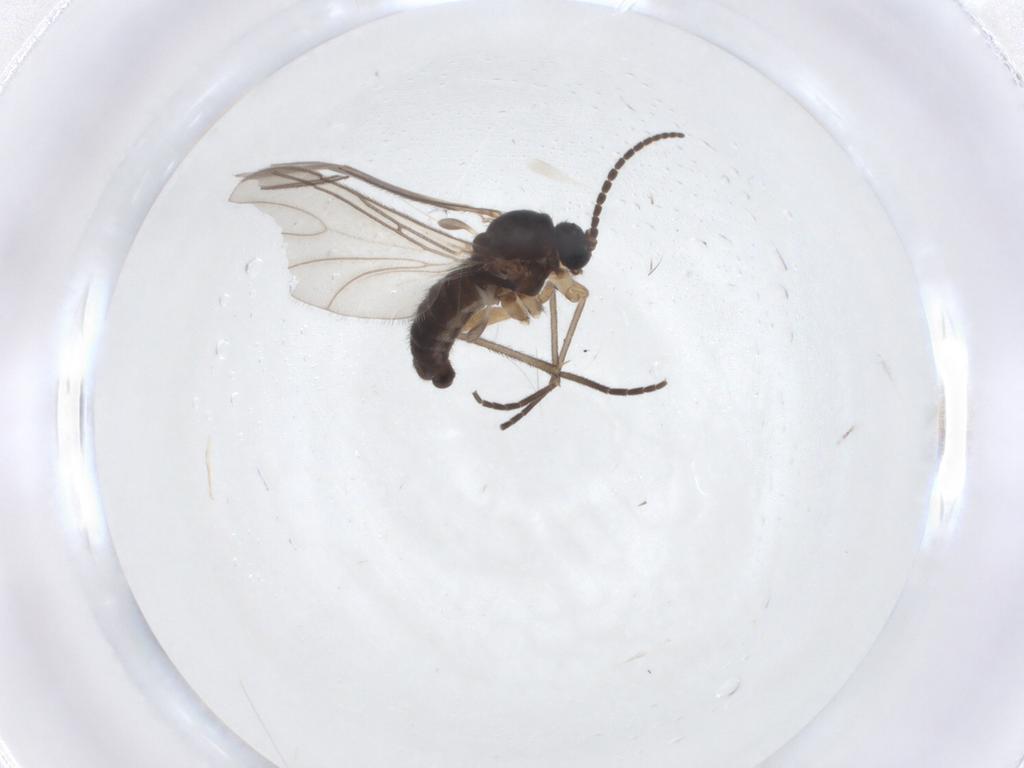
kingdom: Animalia
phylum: Arthropoda
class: Insecta
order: Diptera
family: Sciaridae
